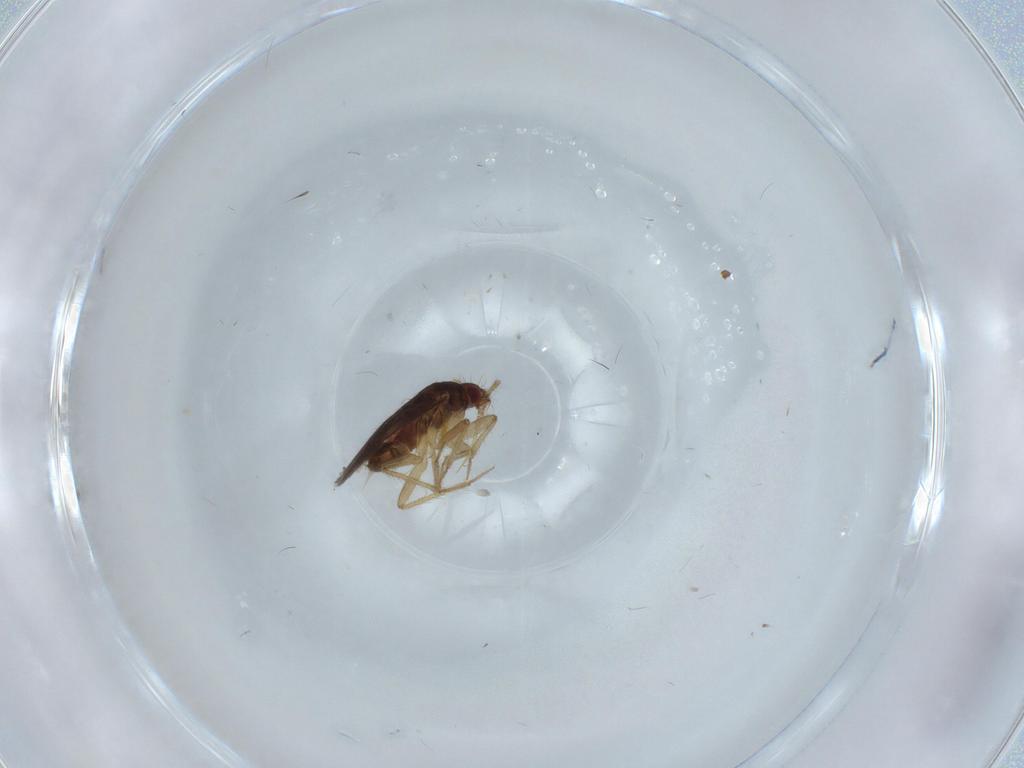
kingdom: Animalia
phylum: Arthropoda
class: Insecta
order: Hemiptera
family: Ceratocombidae
